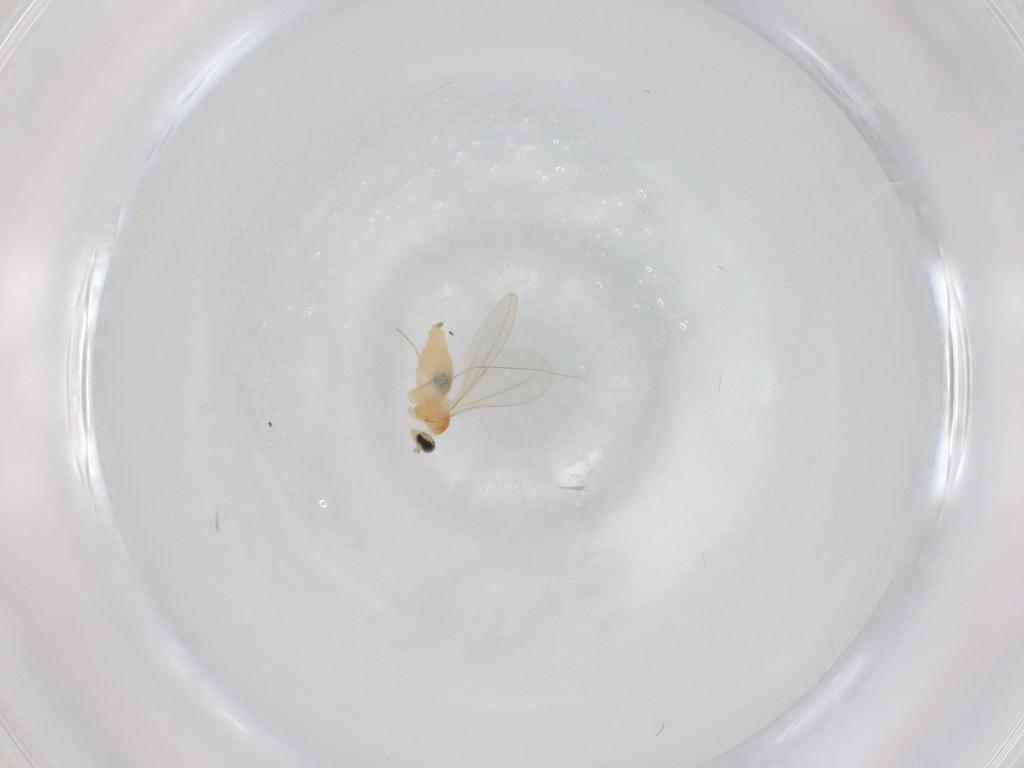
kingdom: Animalia
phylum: Arthropoda
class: Insecta
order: Diptera
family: Cecidomyiidae
